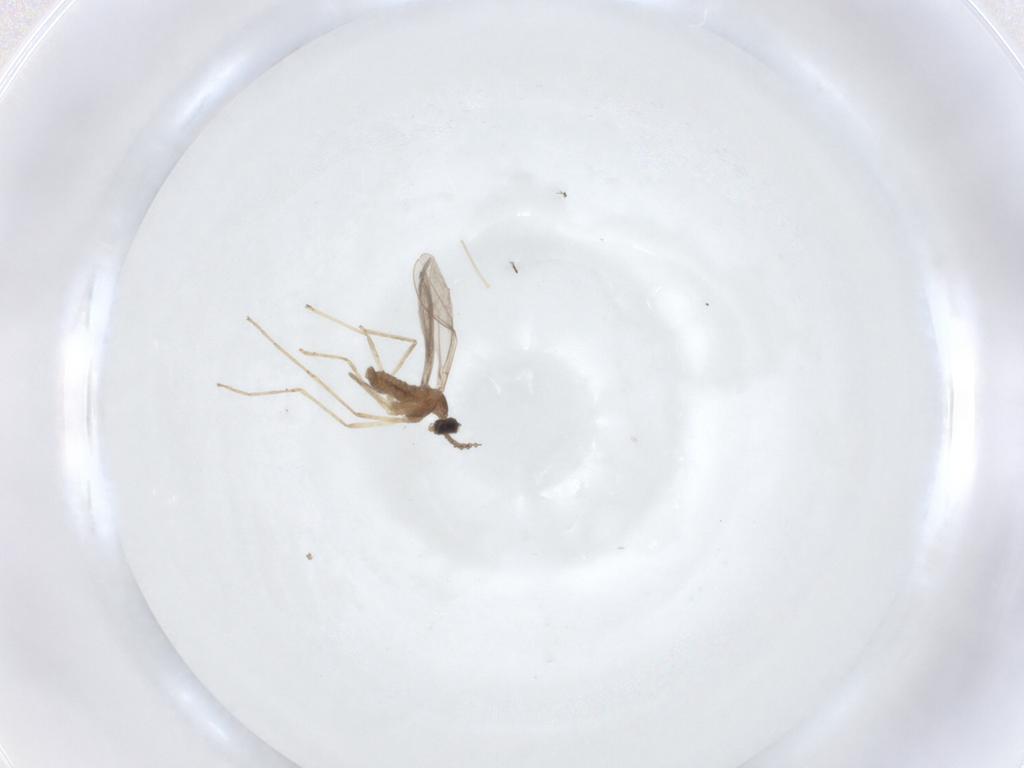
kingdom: Animalia
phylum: Arthropoda
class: Insecta
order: Diptera
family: Cecidomyiidae
